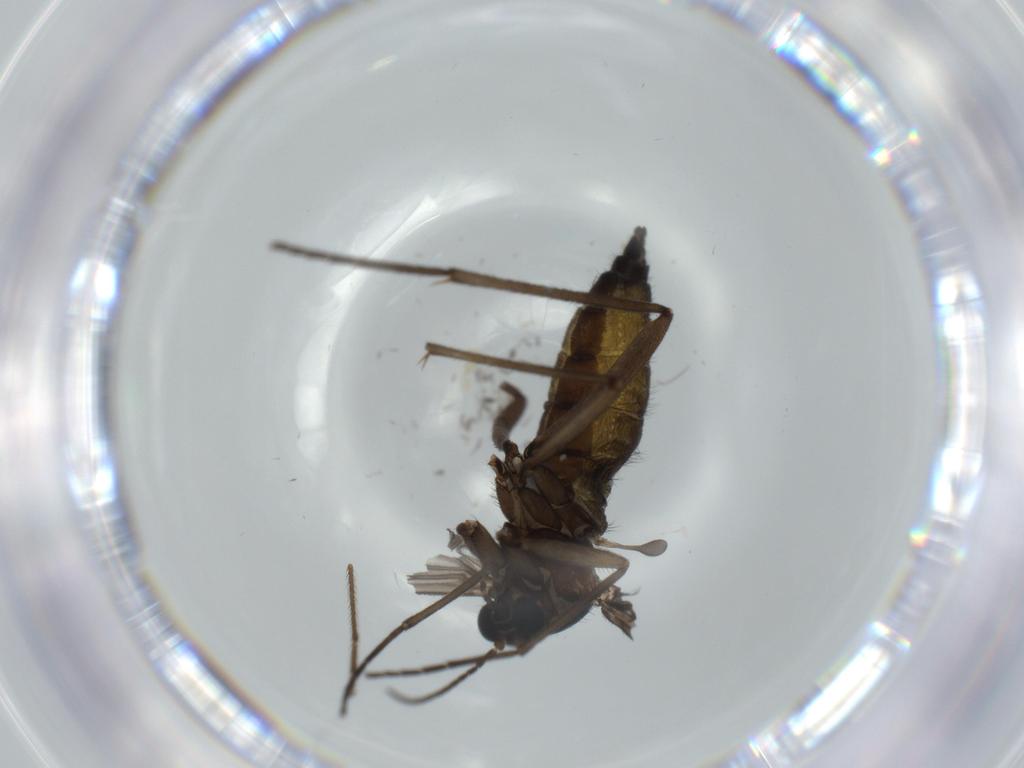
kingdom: Animalia
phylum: Arthropoda
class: Insecta
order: Diptera
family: Sciaridae
